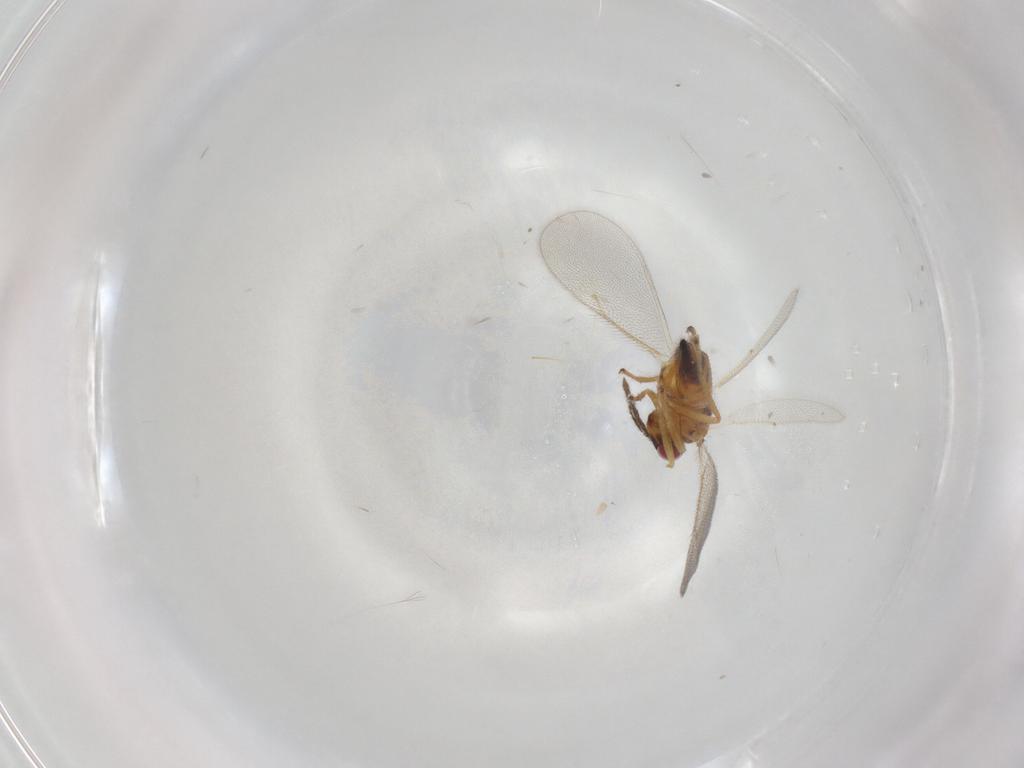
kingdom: Animalia
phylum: Arthropoda
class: Insecta
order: Hymenoptera
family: Eulophidae
